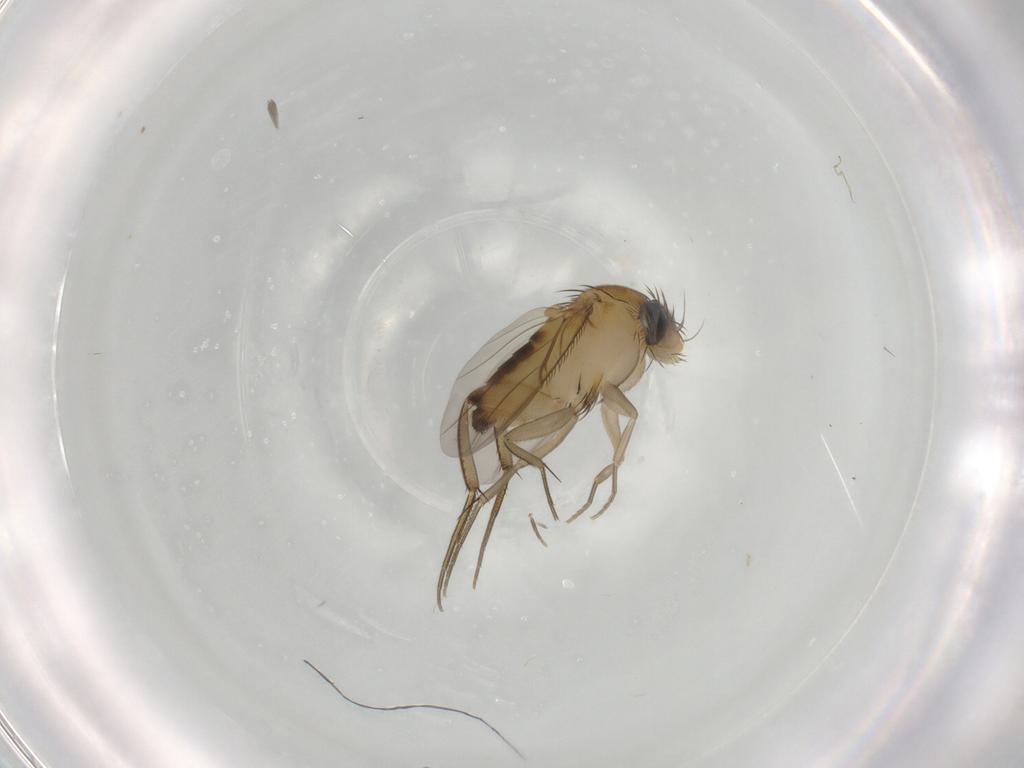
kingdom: Animalia
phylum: Arthropoda
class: Insecta
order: Diptera
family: Phoridae
